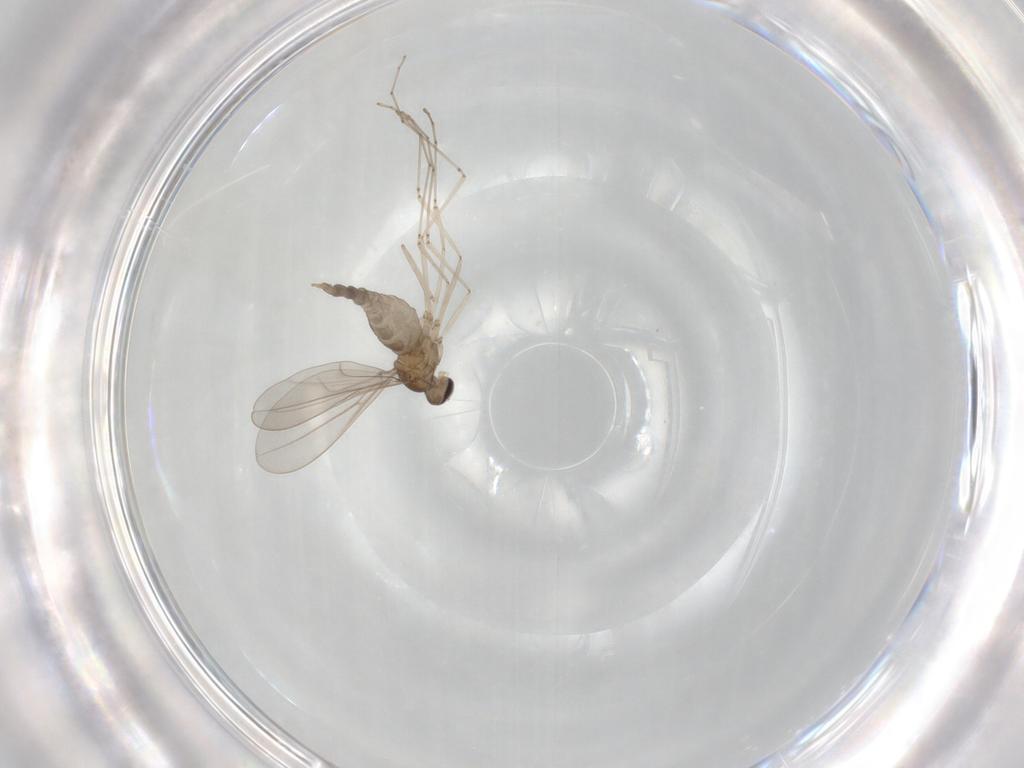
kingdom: Animalia
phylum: Arthropoda
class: Insecta
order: Diptera
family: Cecidomyiidae
